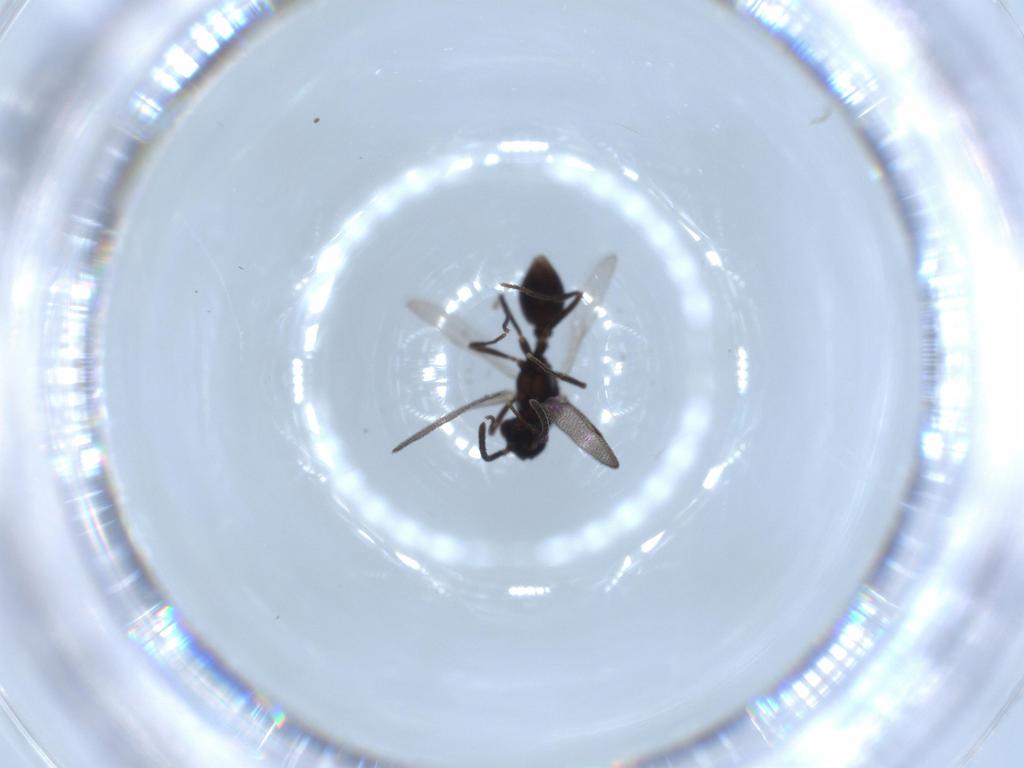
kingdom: Animalia
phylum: Arthropoda
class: Insecta
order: Hymenoptera
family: Formicidae
